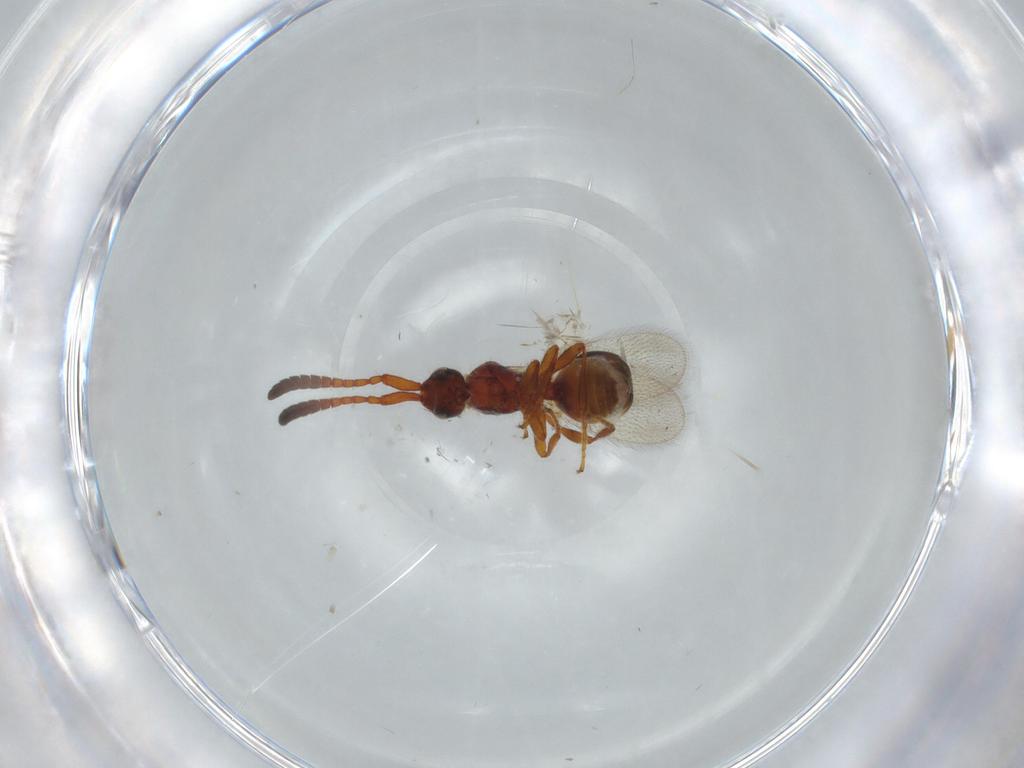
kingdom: Animalia
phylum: Arthropoda
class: Insecta
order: Hymenoptera
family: Diapriidae
